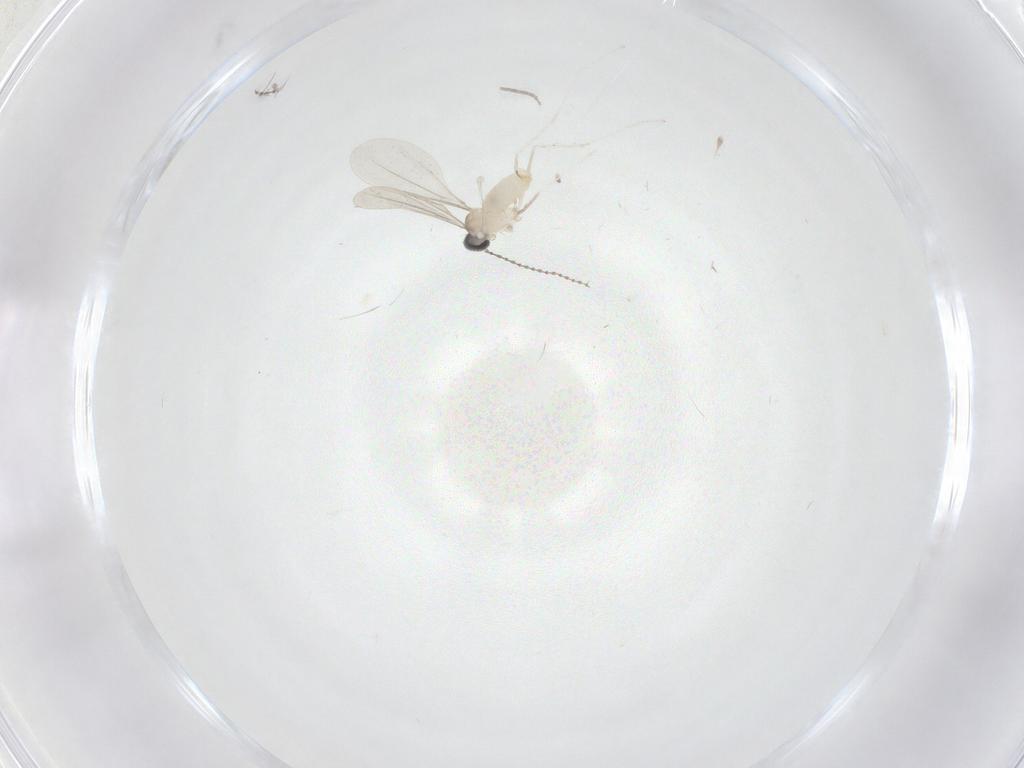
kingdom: Animalia
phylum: Arthropoda
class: Insecta
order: Diptera
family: Cecidomyiidae
